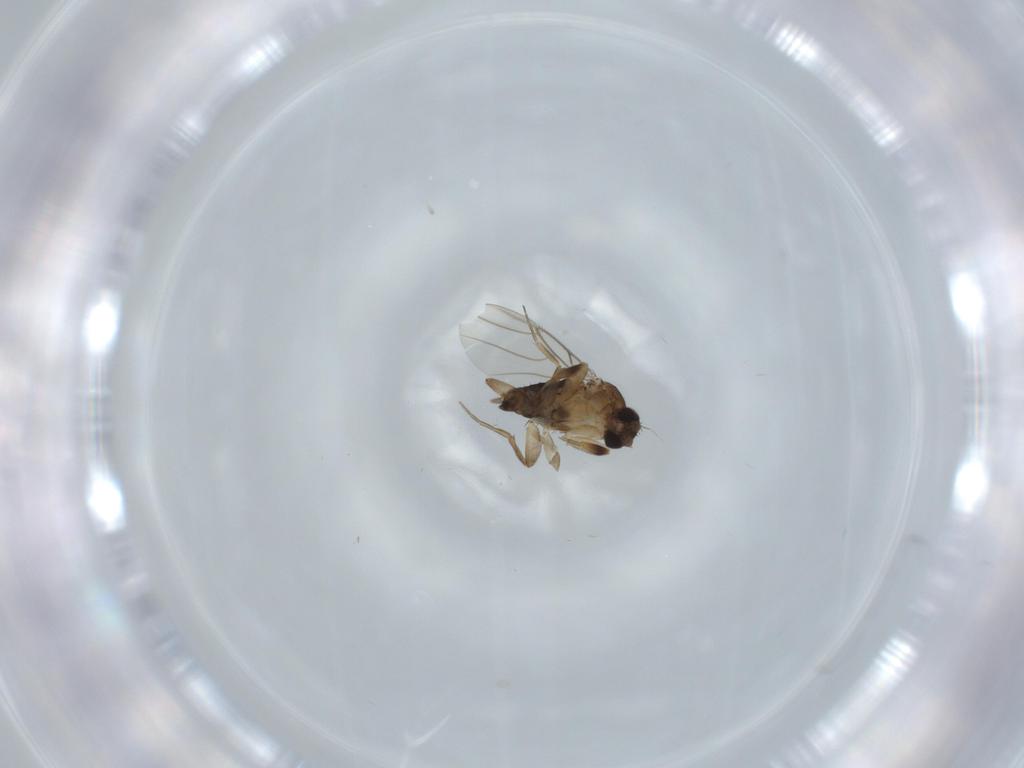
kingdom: Animalia
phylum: Arthropoda
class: Insecta
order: Diptera
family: Phoridae
